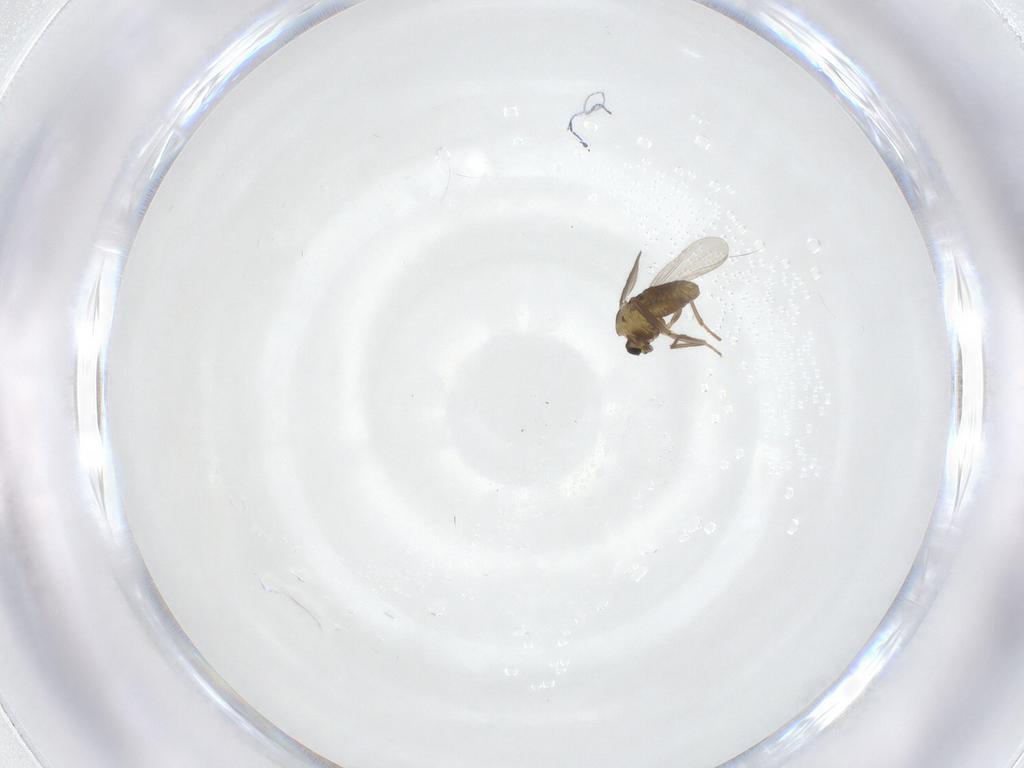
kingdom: Animalia
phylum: Arthropoda
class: Insecta
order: Diptera
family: Chironomidae
